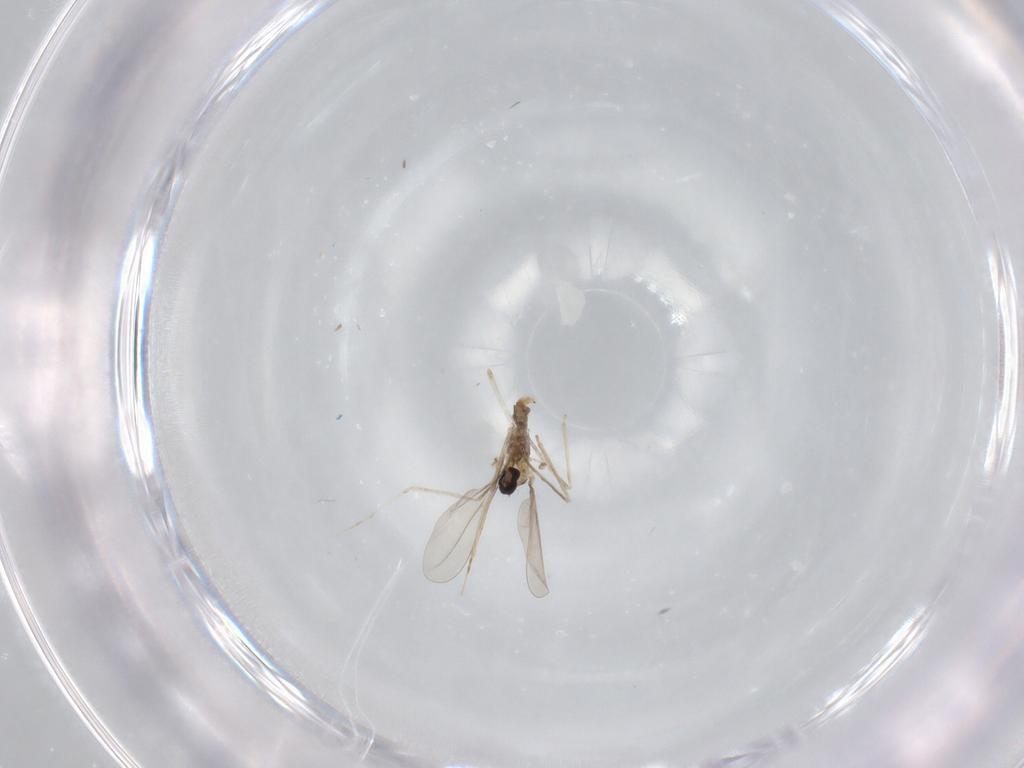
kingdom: Animalia
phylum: Arthropoda
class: Insecta
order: Diptera
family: Cecidomyiidae
